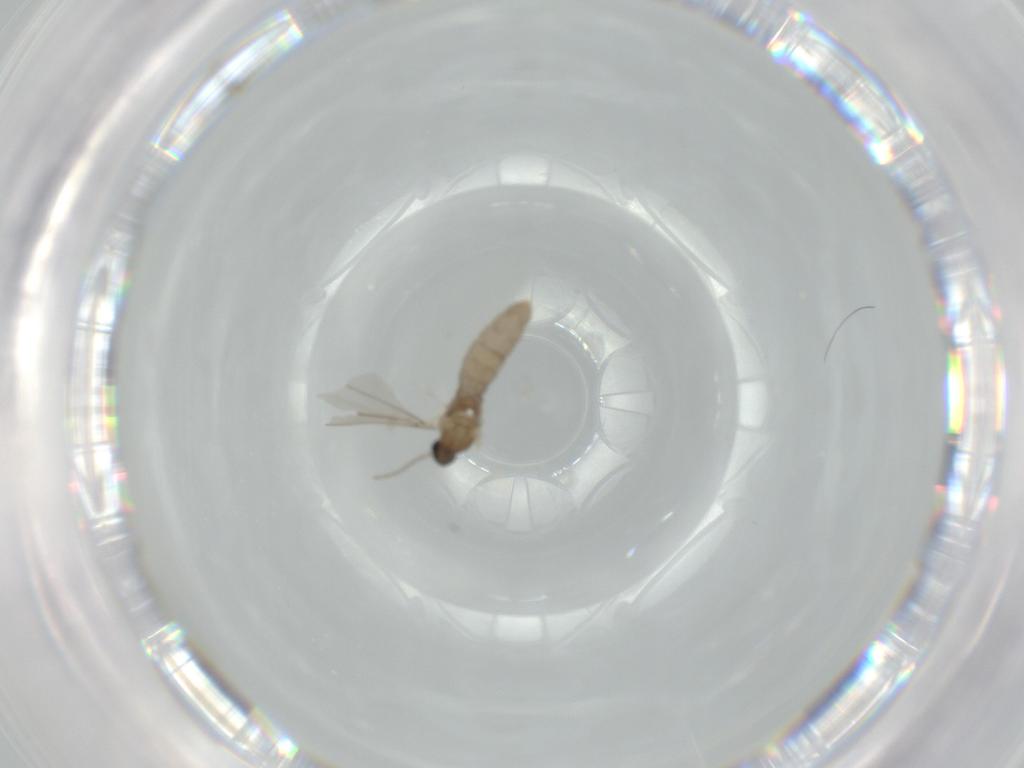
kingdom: Animalia
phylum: Arthropoda
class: Insecta
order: Diptera
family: Cecidomyiidae
